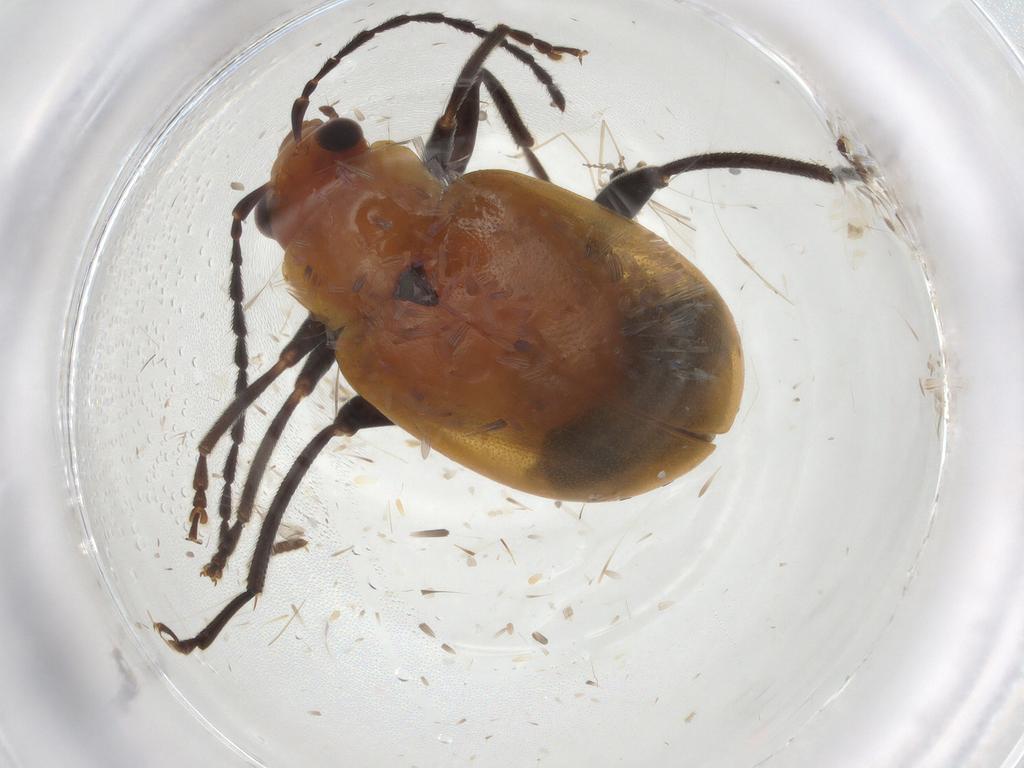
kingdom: Animalia
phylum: Arthropoda
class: Insecta
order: Coleoptera
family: Chrysomelidae
